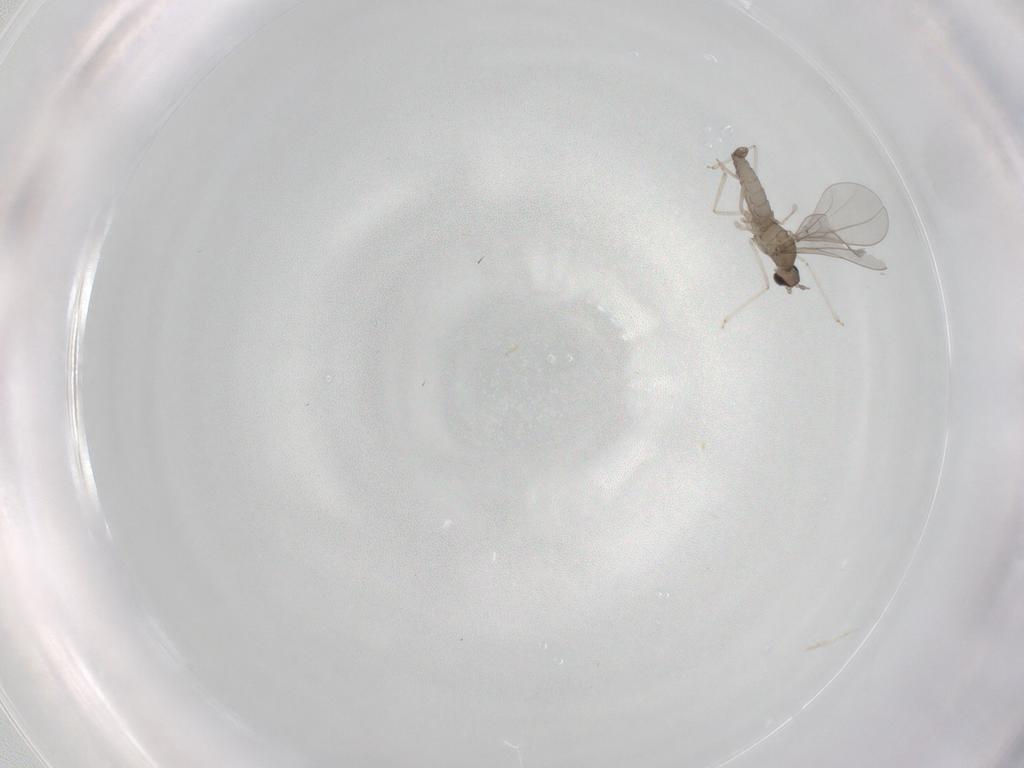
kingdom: Animalia
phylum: Arthropoda
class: Insecta
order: Diptera
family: Cecidomyiidae
